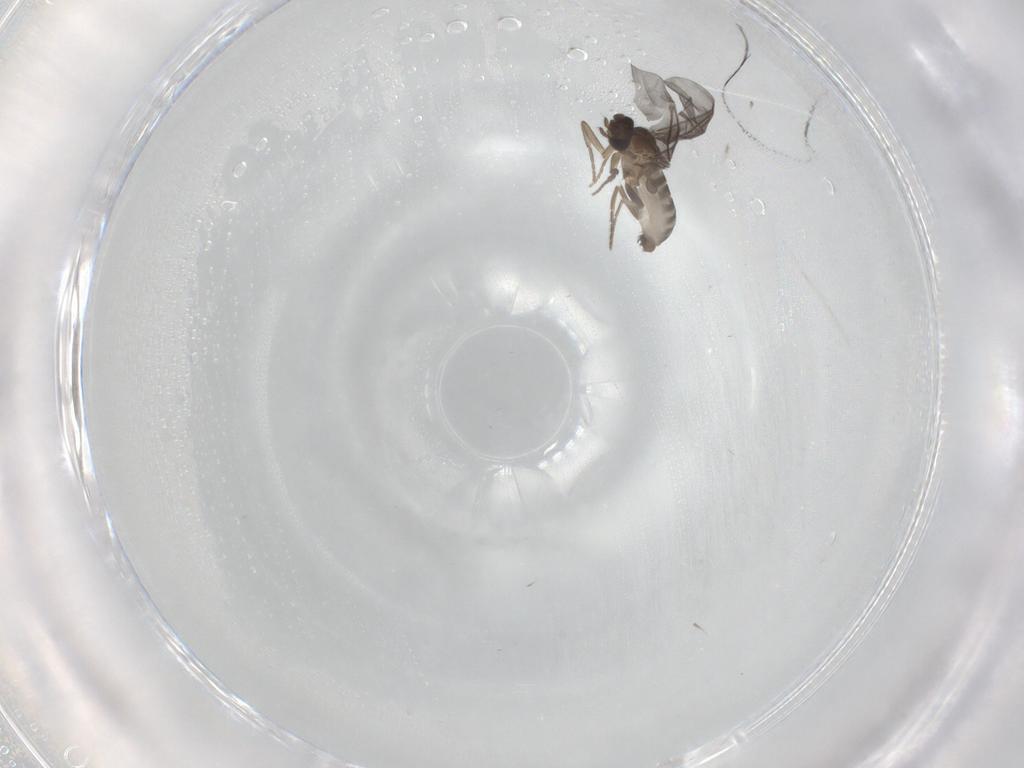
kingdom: Animalia
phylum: Arthropoda
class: Insecta
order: Diptera
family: Phoridae
